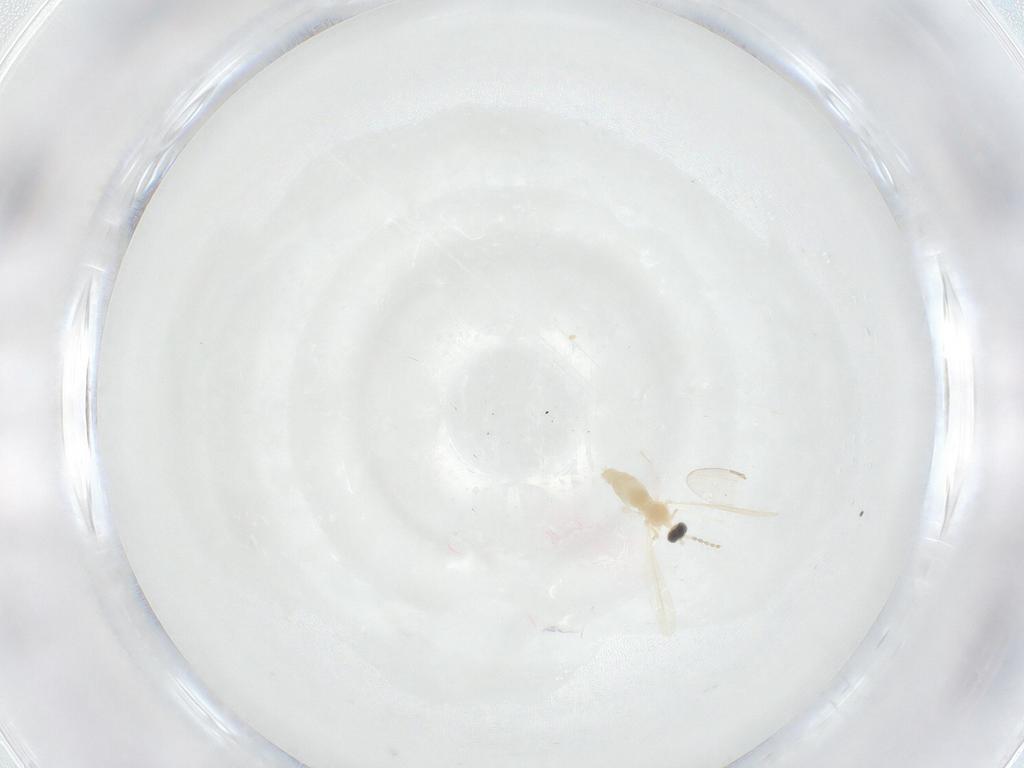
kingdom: Animalia
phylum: Arthropoda
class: Insecta
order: Diptera
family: Cecidomyiidae
